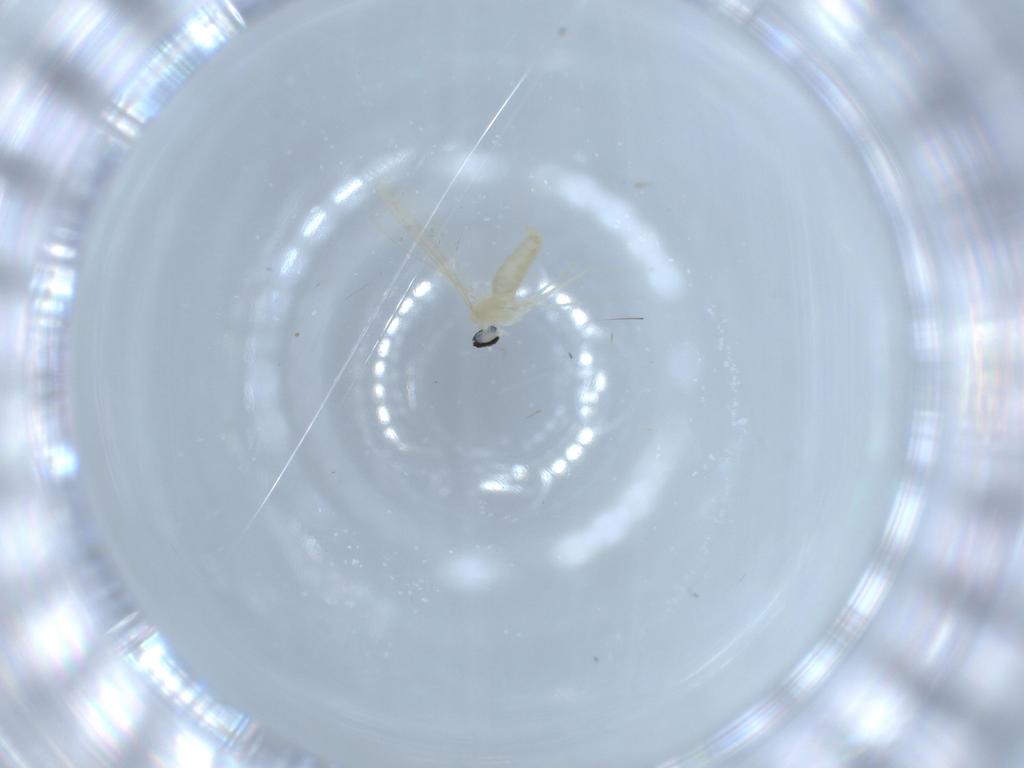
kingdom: Animalia
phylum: Arthropoda
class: Insecta
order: Diptera
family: Cecidomyiidae
